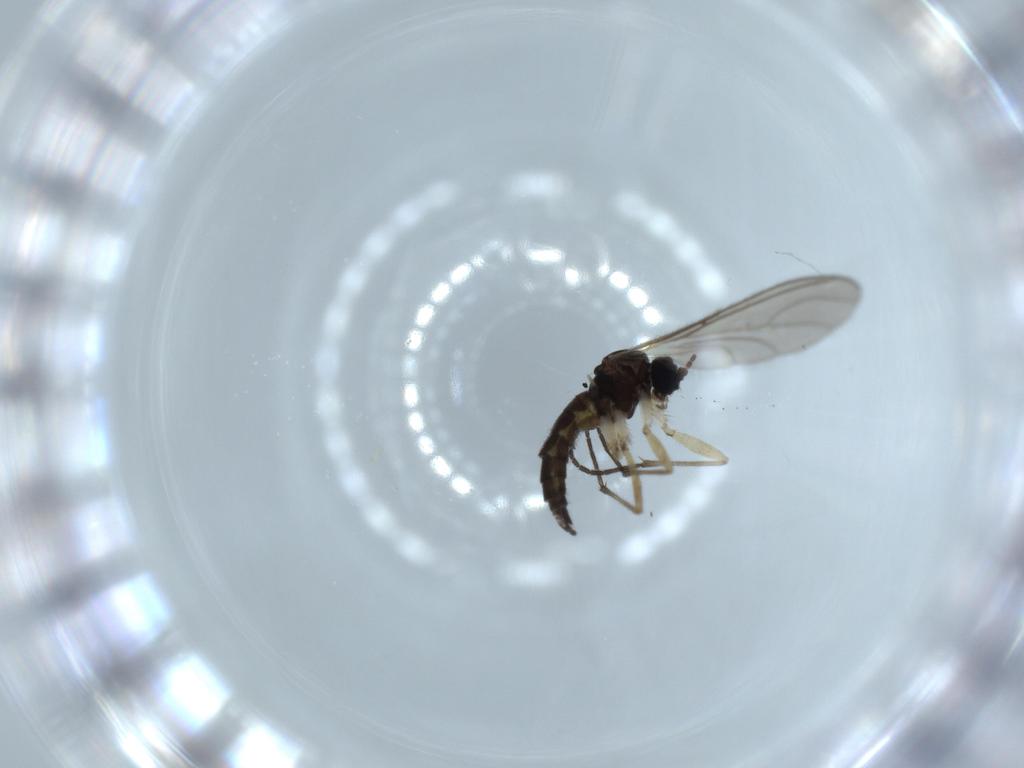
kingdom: Animalia
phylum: Arthropoda
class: Insecta
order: Diptera
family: Sciaridae
